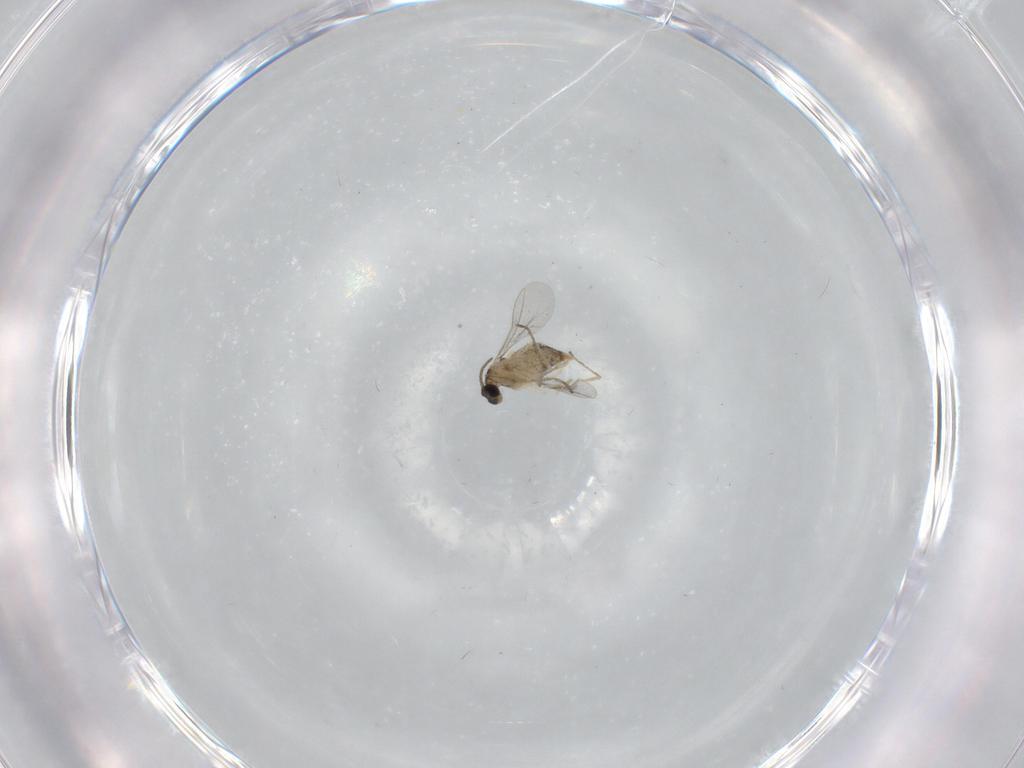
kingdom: Animalia
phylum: Arthropoda
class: Insecta
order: Diptera
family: Cecidomyiidae
